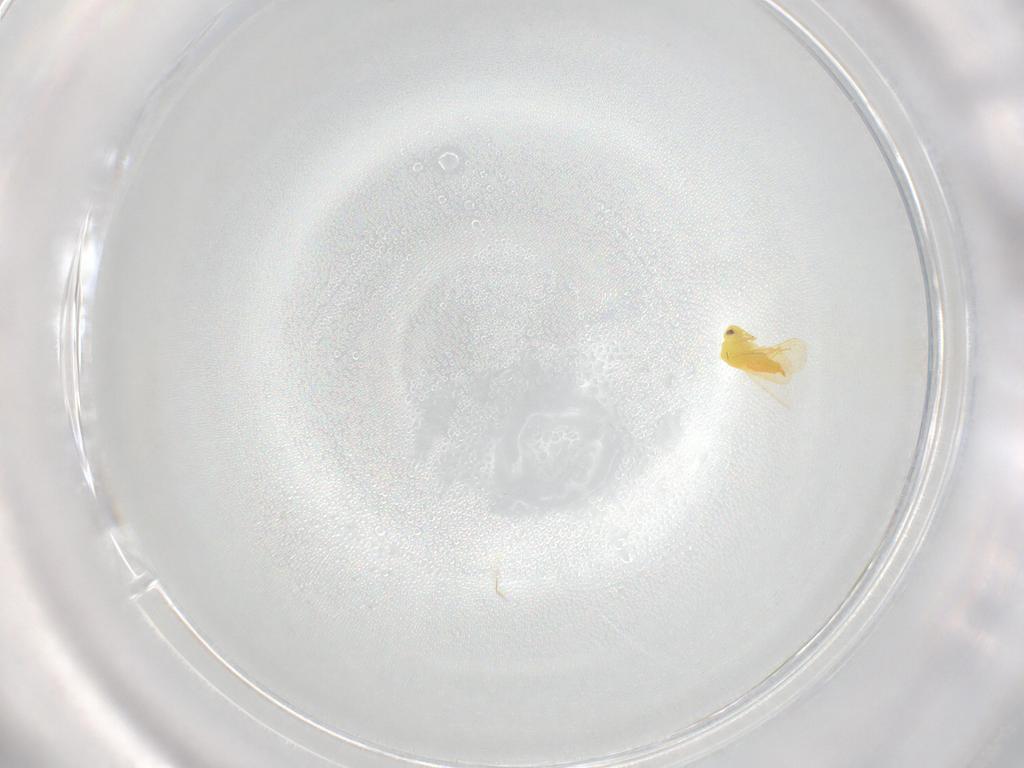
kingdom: Animalia
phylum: Arthropoda
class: Insecta
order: Hemiptera
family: Aleyrodidae
